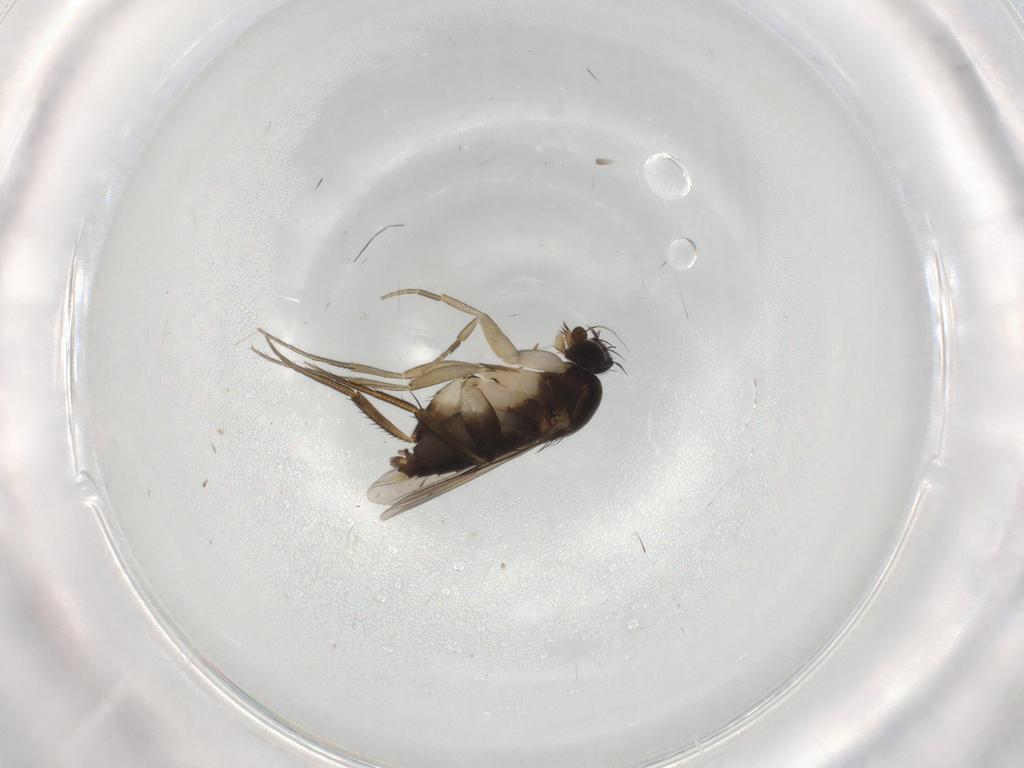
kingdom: Animalia
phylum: Arthropoda
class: Insecta
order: Diptera
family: Phoridae
